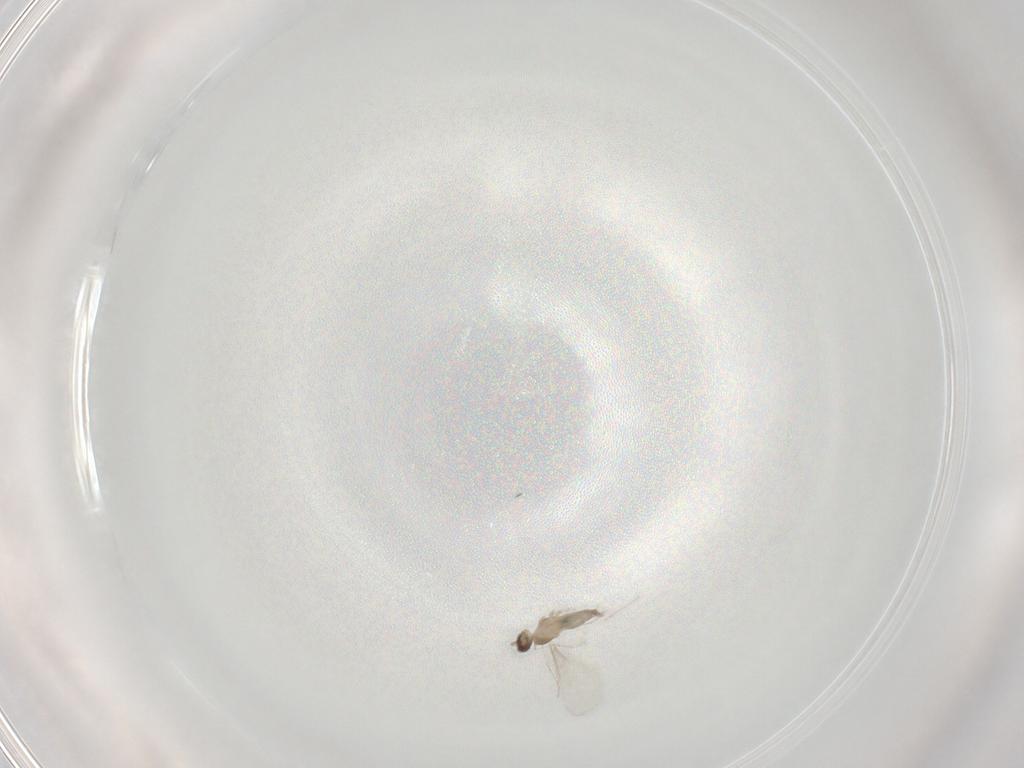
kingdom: Animalia
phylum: Arthropoda
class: Insecta
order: Diptera
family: Cecidomyiidae
